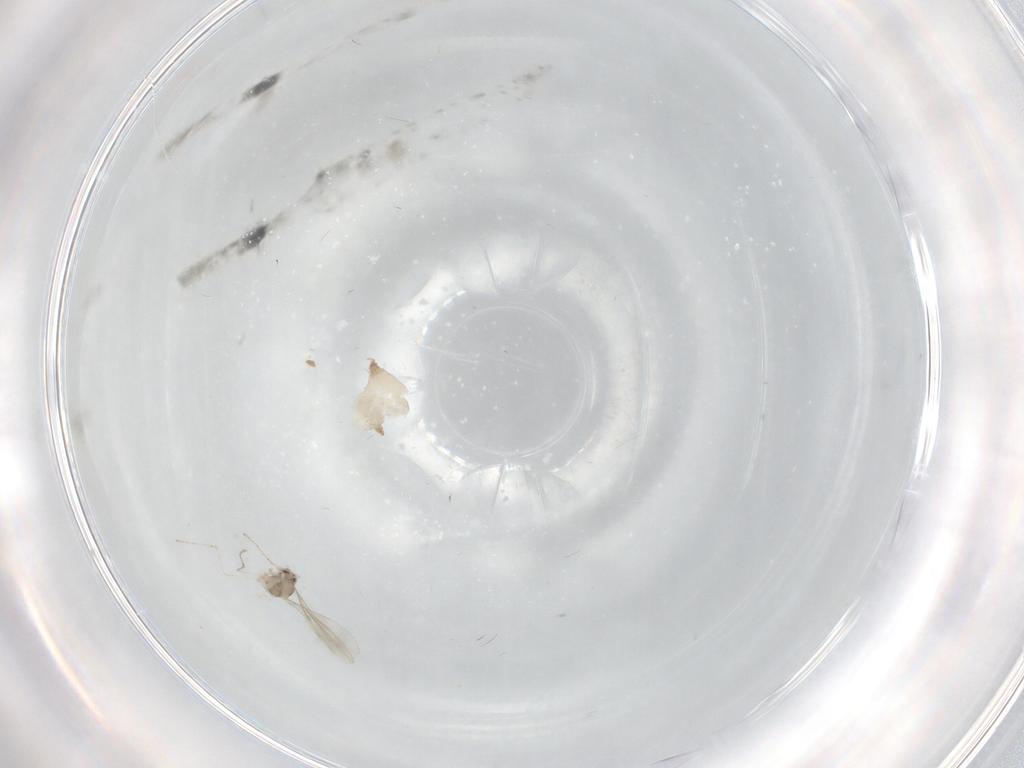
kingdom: Animalia
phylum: Arthropoda
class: Insecta
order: Diptera
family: Cecidomyiidae
